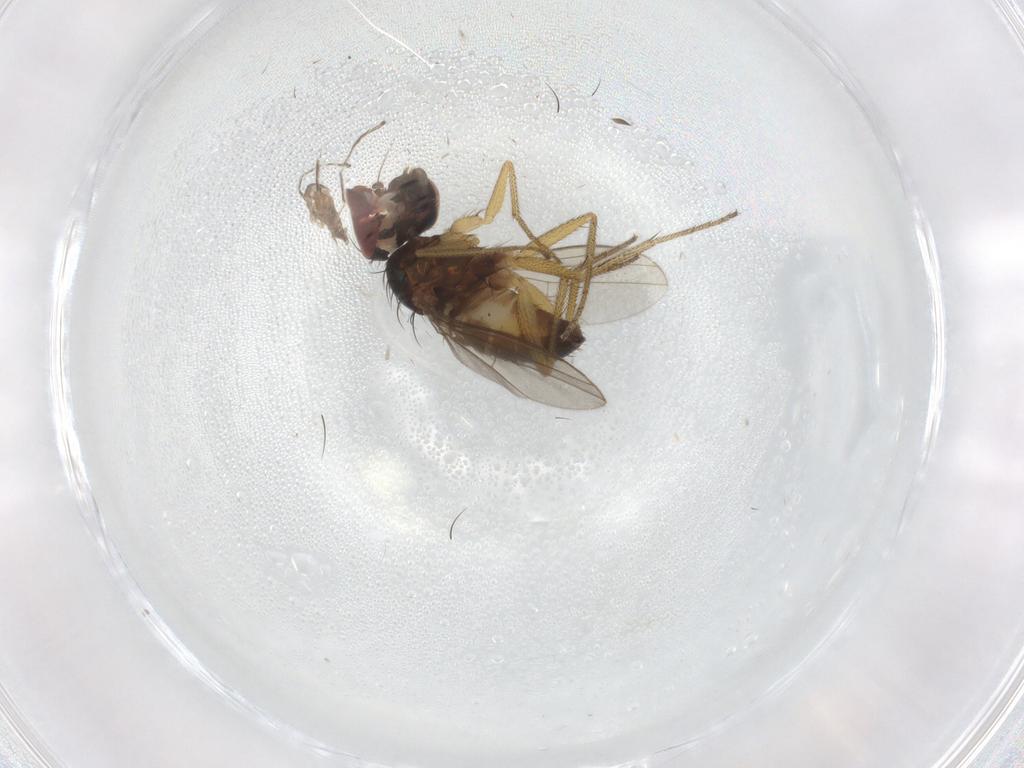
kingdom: Animalia
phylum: Arthropoda
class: Insecta
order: Diptera
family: Dolichopodidae
